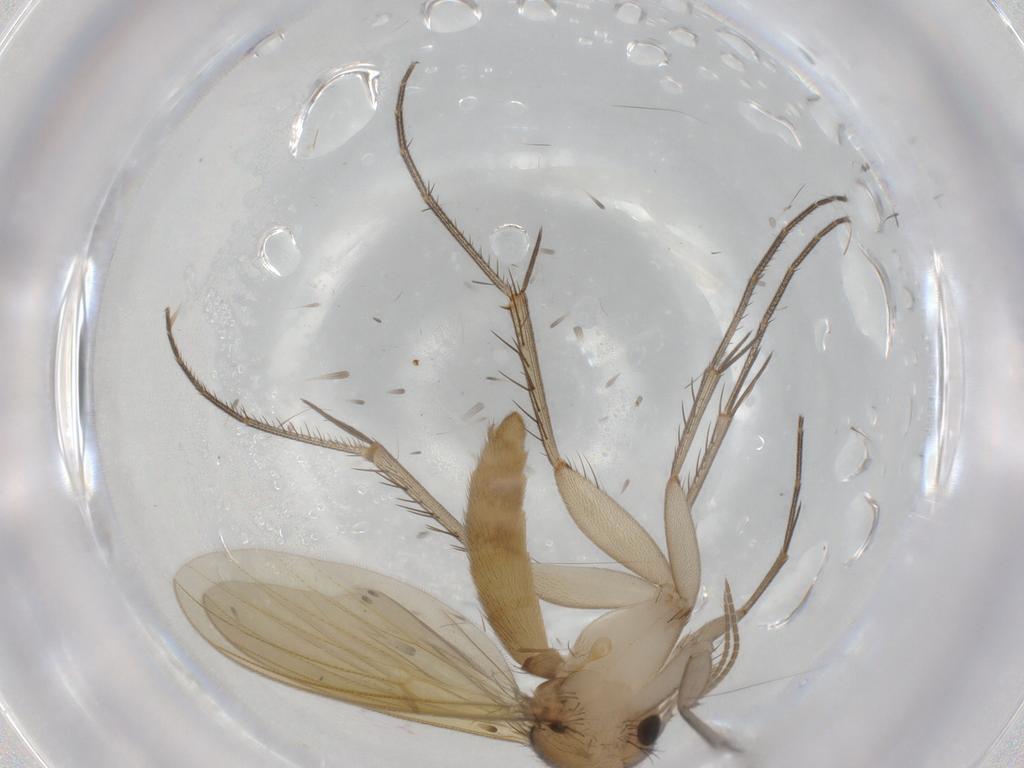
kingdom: Animalia
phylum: Arthropoda
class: Insecta
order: Diptera
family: Mycetophilidae
